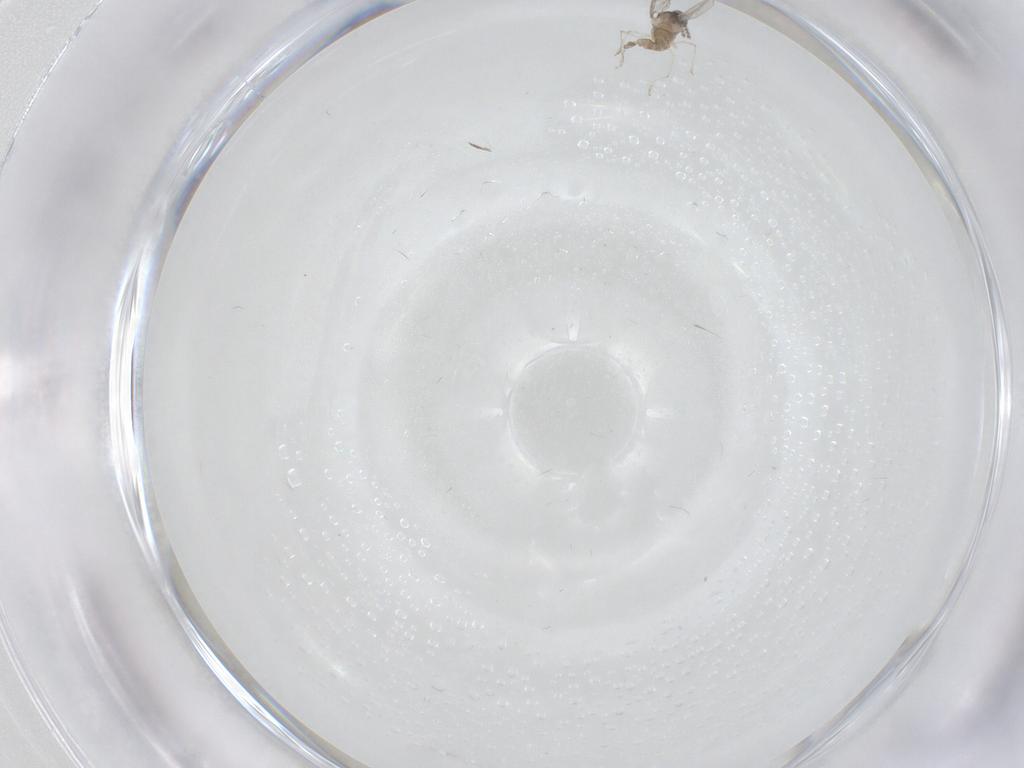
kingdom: Animalia
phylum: Arthropoda
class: Insecta
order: Diptera
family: Cecidomyiidae
